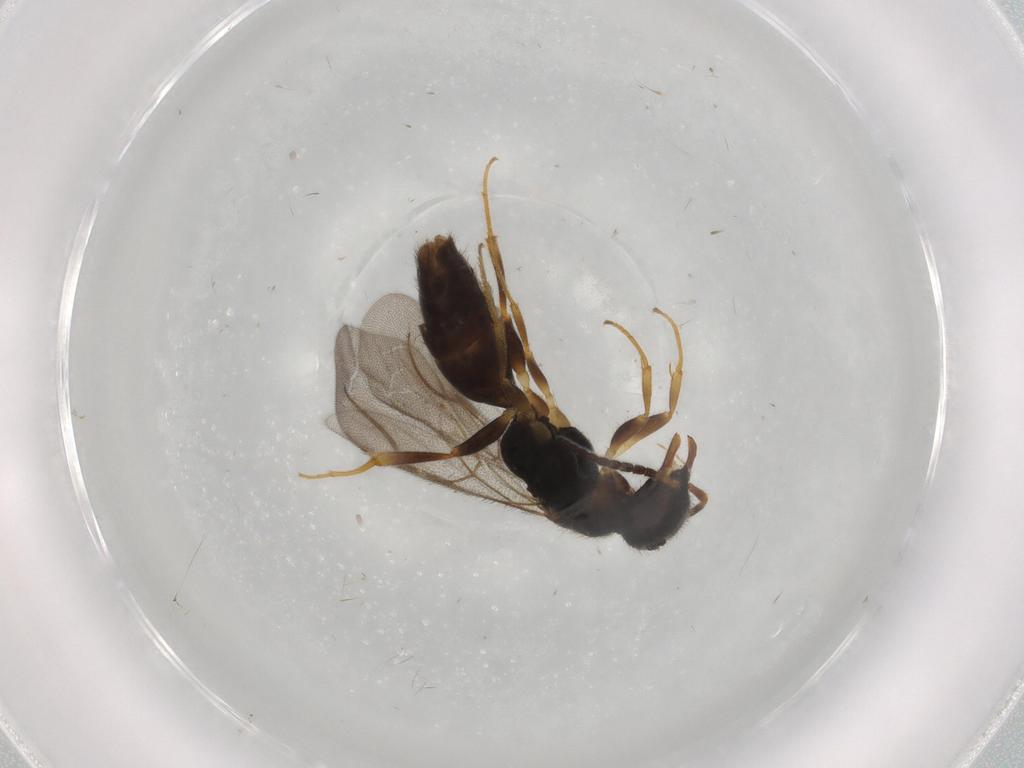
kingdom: Animalia
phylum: Arthropoda
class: Insecta
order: Hymenoptera
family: Bethylidae
